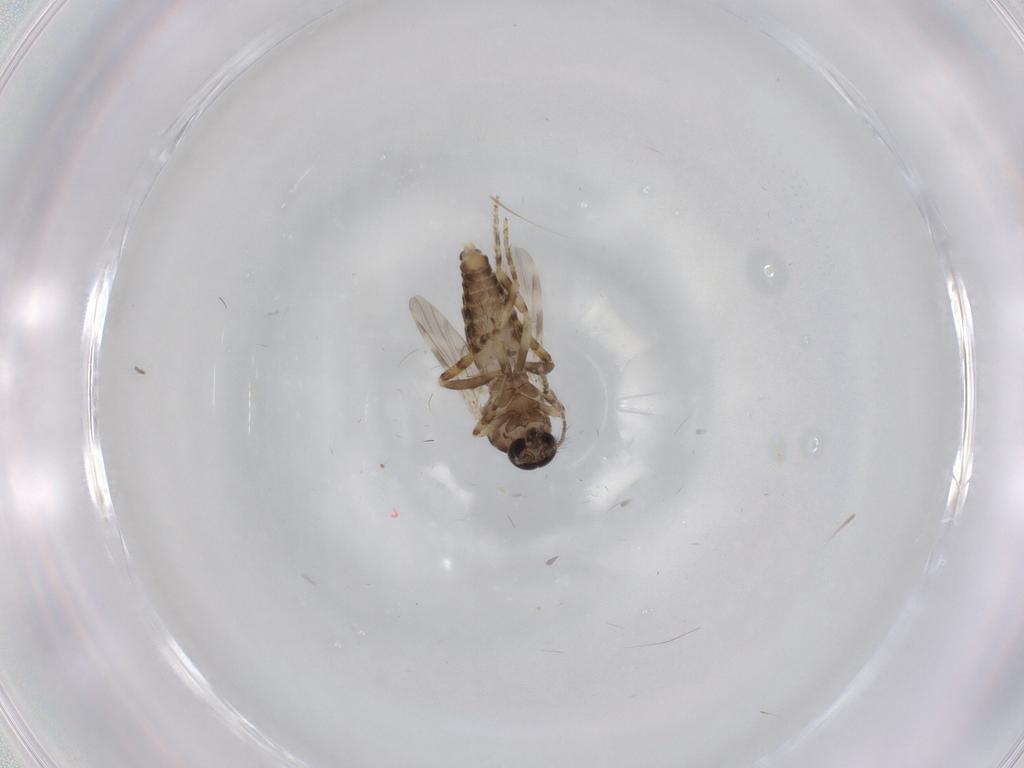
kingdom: Animalia
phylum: Arthropoda
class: Insecta
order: Diptera
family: Ceratopogonidae
